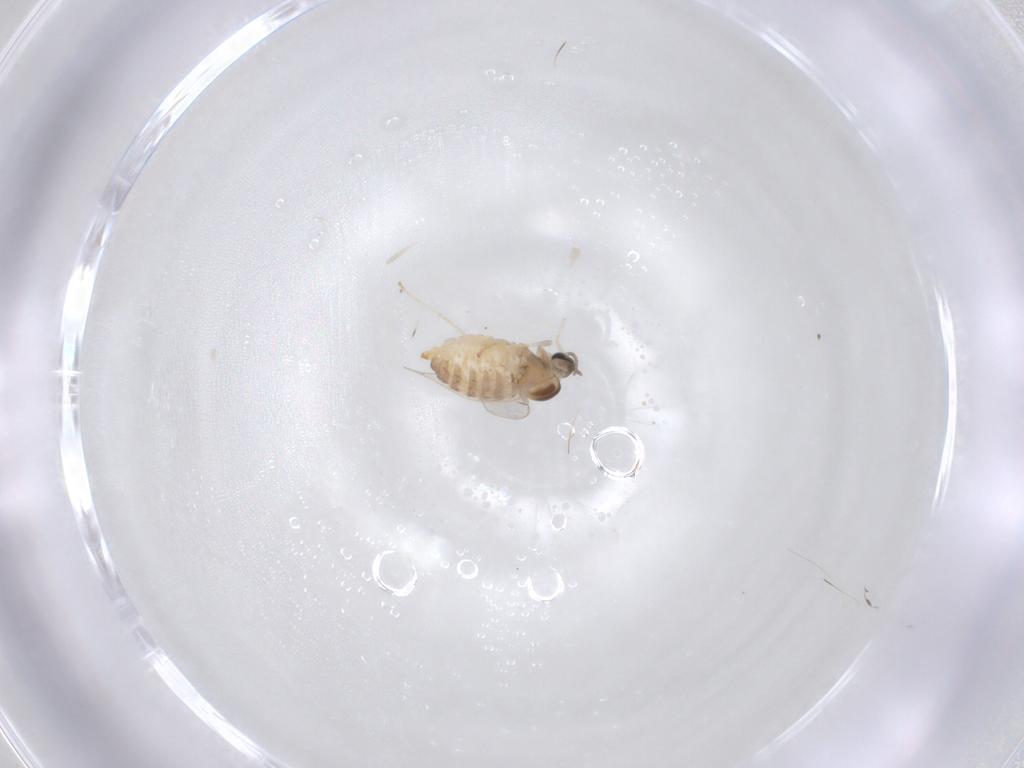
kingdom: Animalia
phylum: Arthropoda
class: Insecta
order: Diptera
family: Cecidomyiidae
